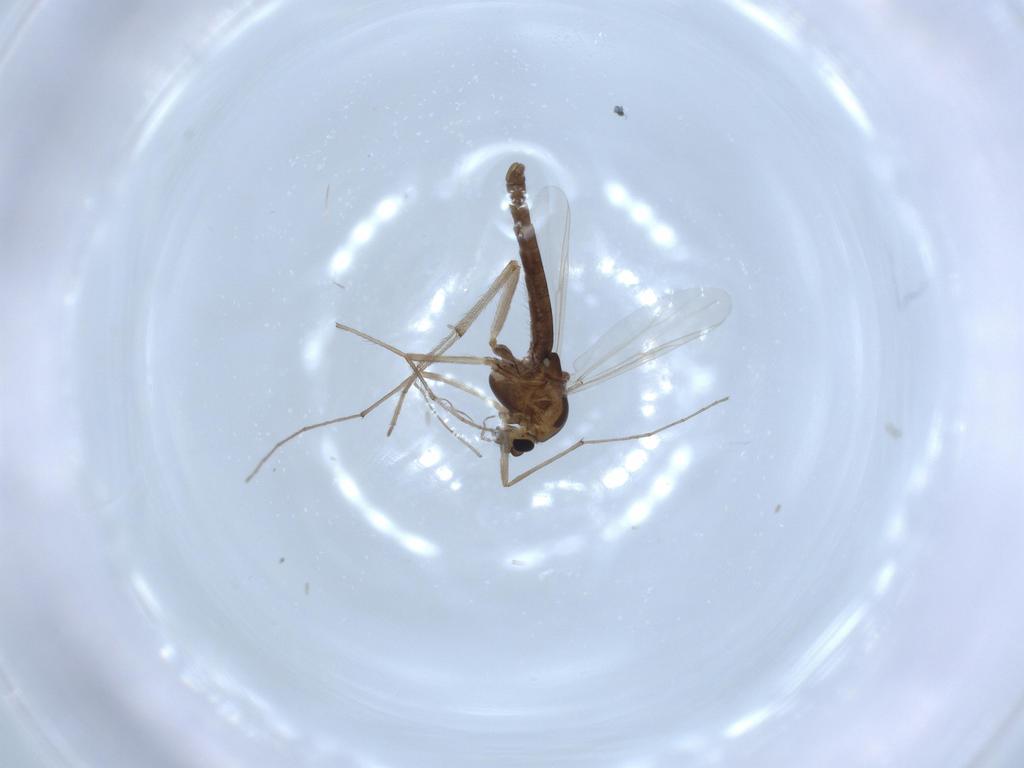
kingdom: Animalia
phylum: Arthropoda
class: Insecta
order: Diptera
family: Chironomidae
